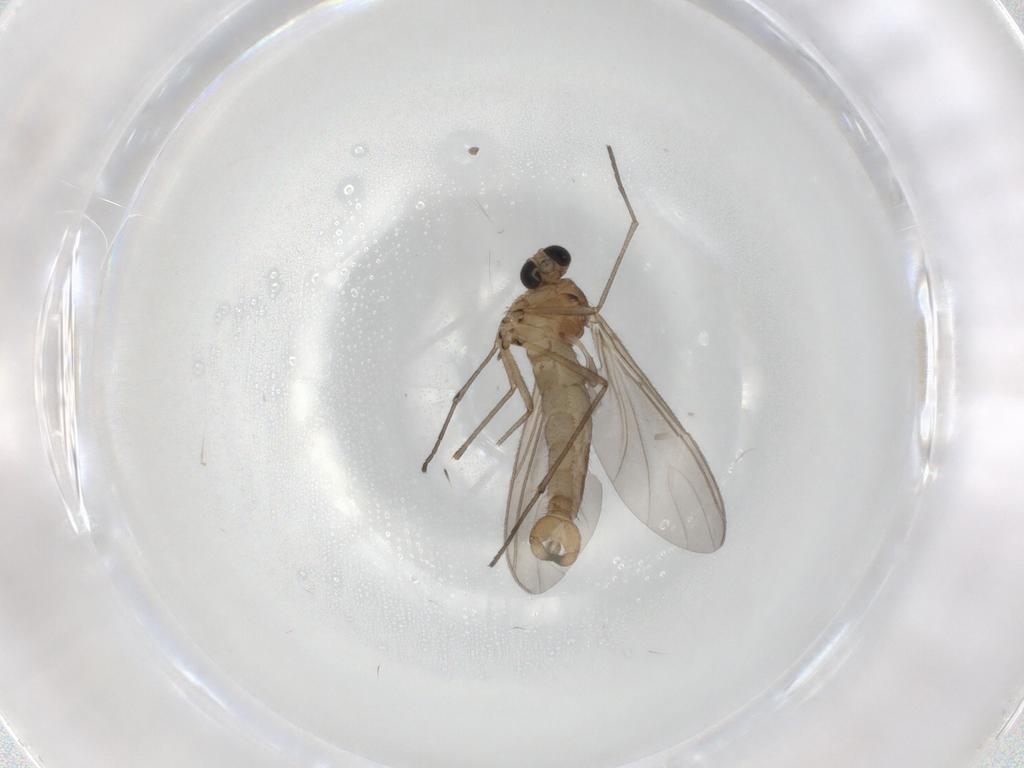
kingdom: Animalia
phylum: Arthropoda
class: Insecta
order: Diptera
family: Sciaridae
